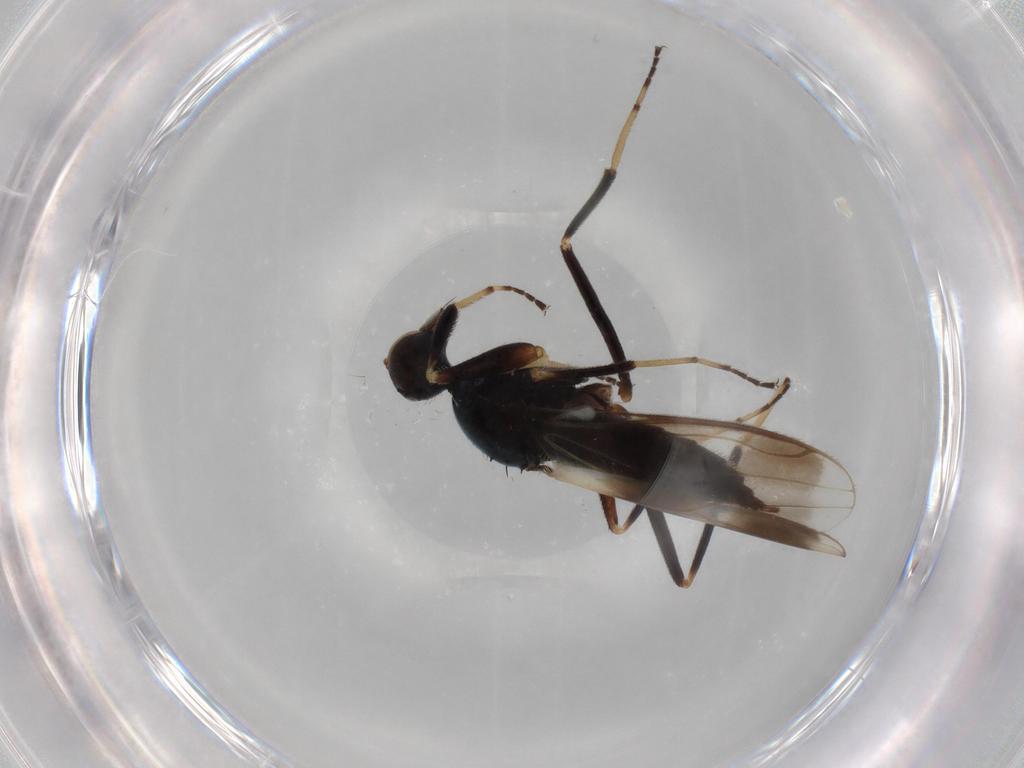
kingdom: Animalia
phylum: Arthropoda
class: Insecta
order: Diptera
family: Hybotidae
